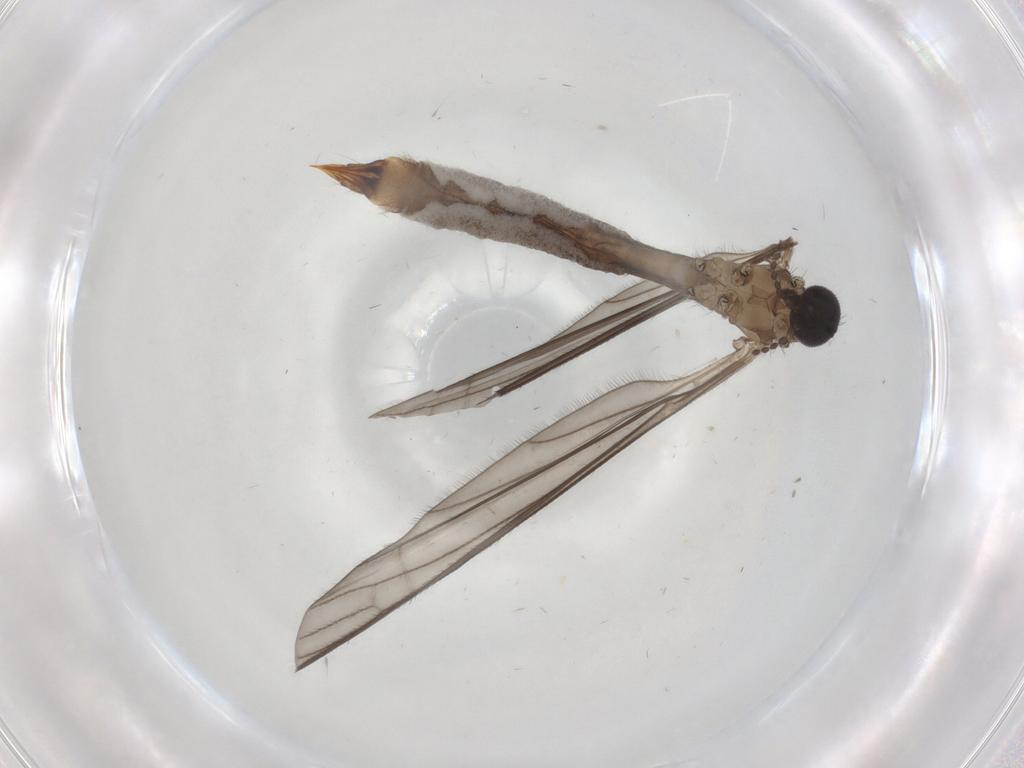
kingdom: Animalia
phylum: Arthropoda
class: Insecta
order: Diptera
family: Limoniidae
